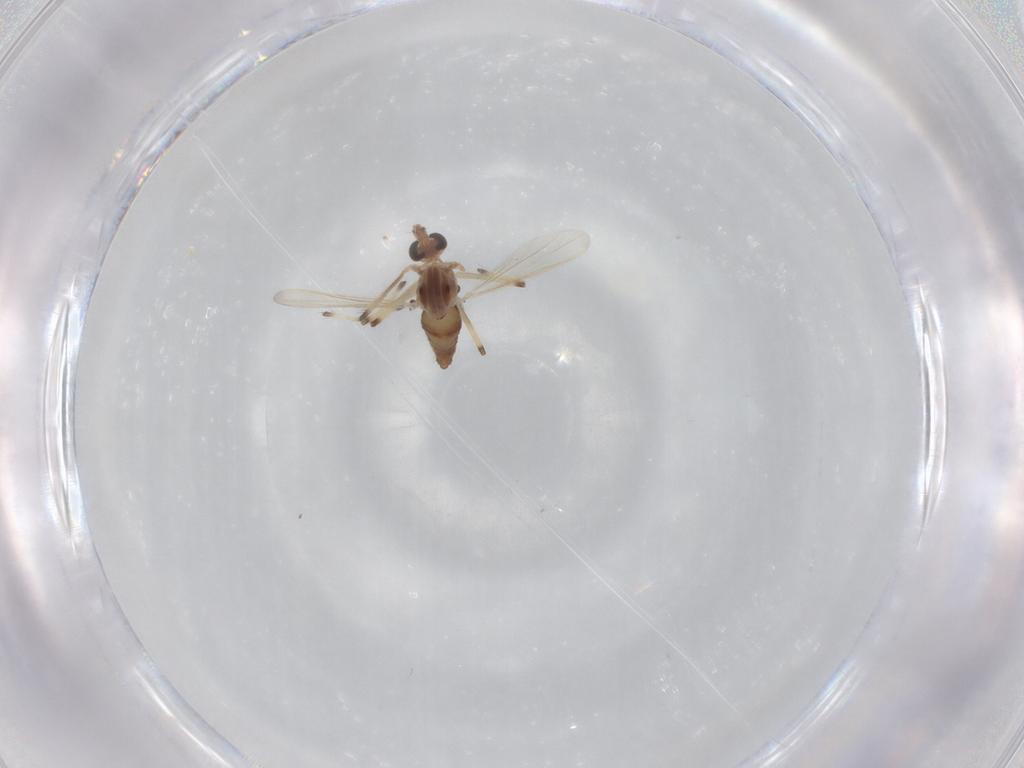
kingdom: Animalia
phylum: Arthropoda
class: Insecta
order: Diptera
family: Chironomidae
